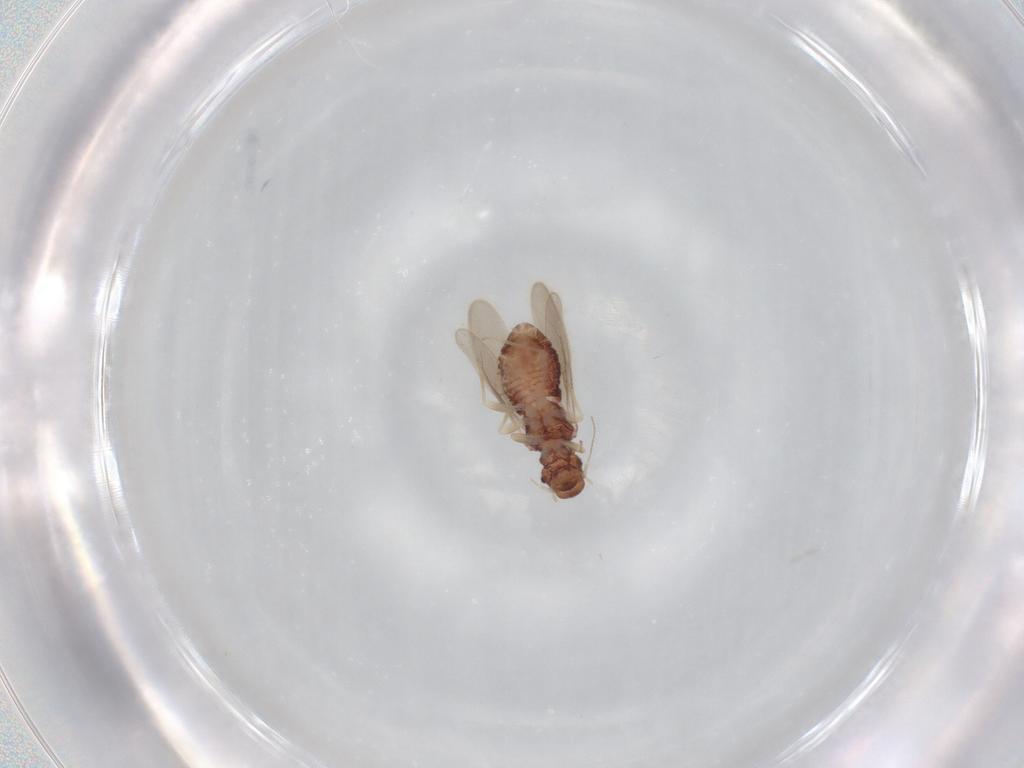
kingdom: Animalia
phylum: Arthropoda
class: Insecta
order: Psocodea
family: Archipsocidae
